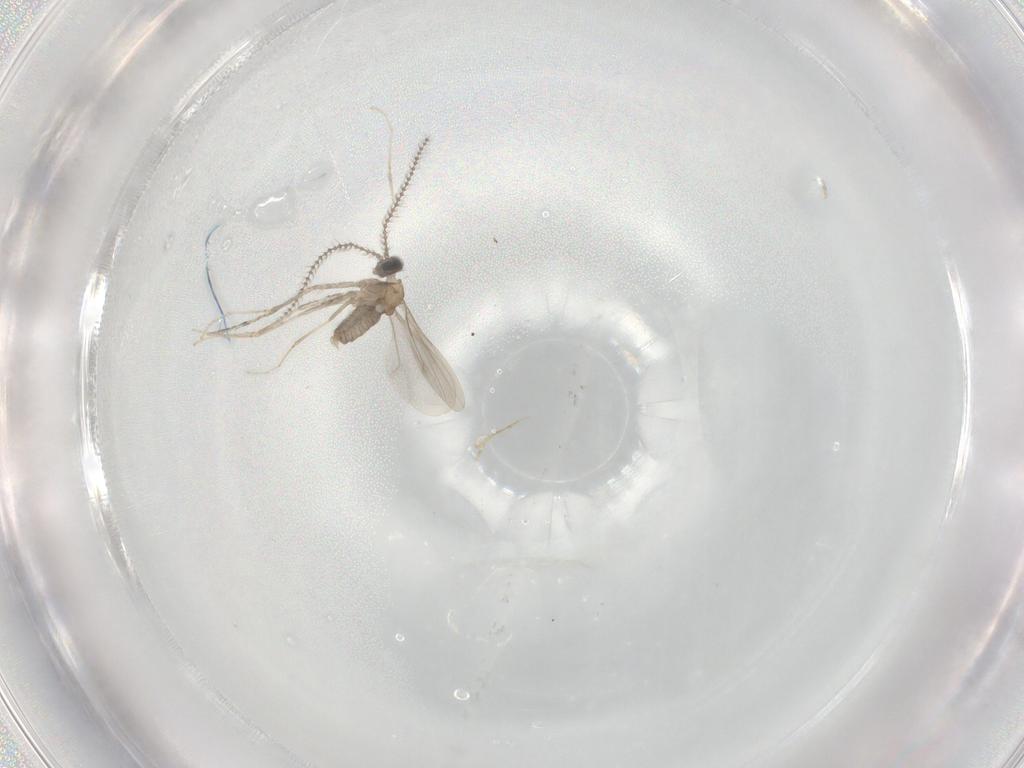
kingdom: Animalia
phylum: Arthropoda
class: Insecta
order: Diptera
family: Cecidomyiidae
